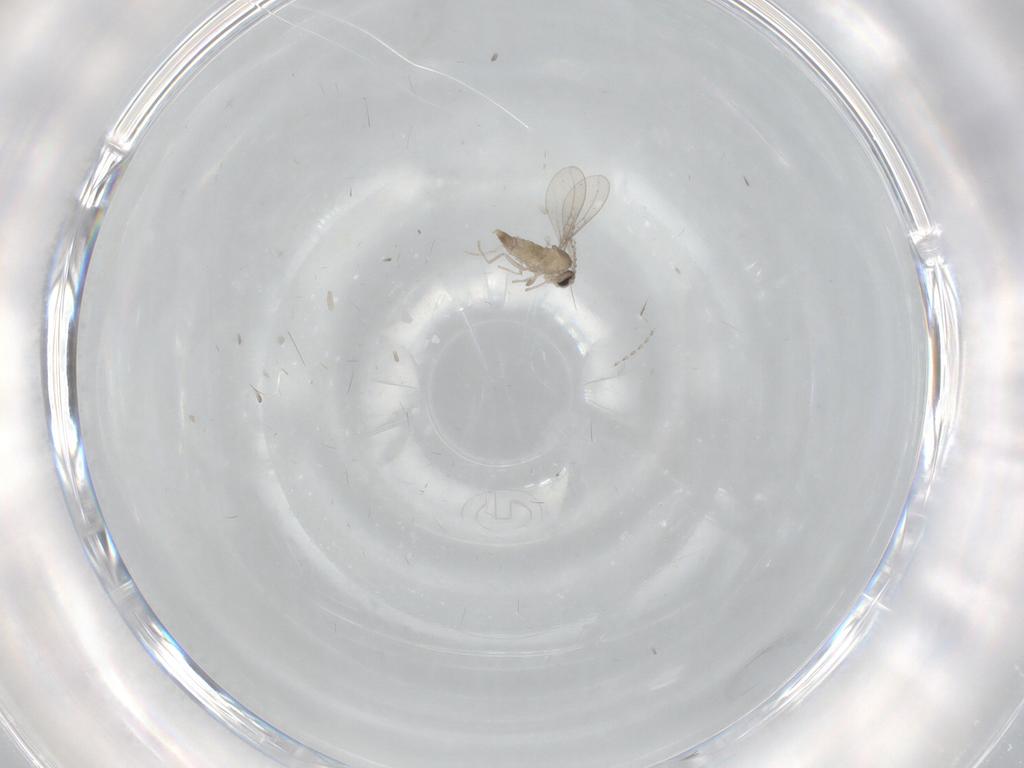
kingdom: Animalia
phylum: Arthropoda
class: Insecta
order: Diptera
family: Cecidomyiidae
